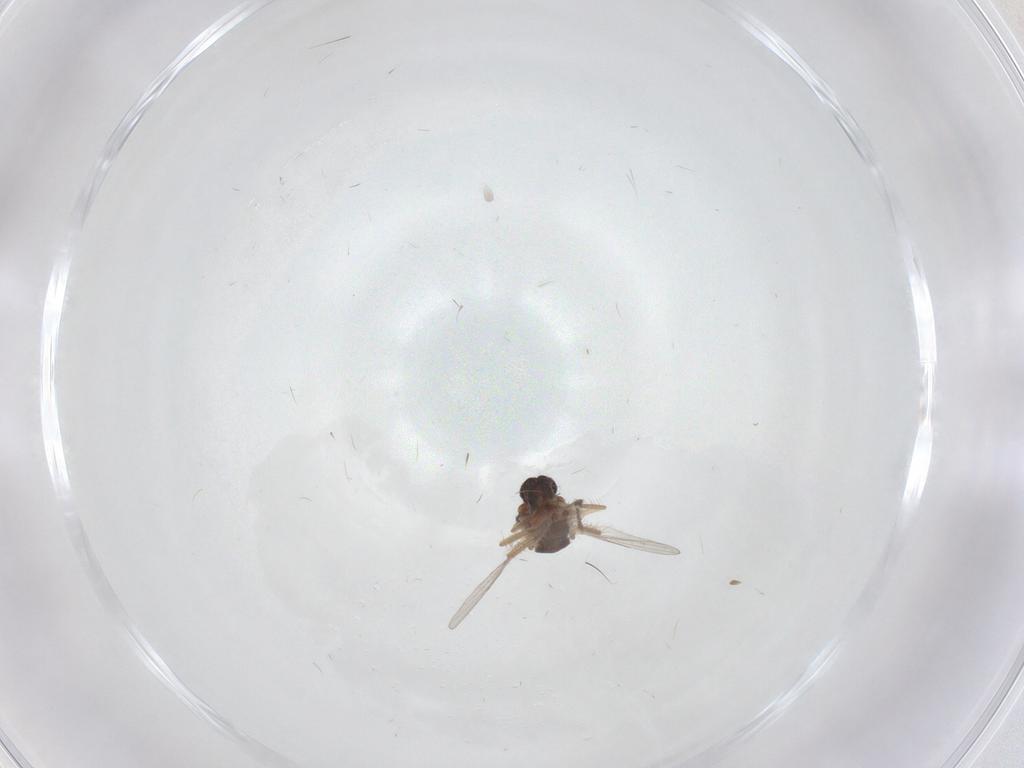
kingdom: Animalia
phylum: Arthropoda
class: Insecta
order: Diptera
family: Ceratopogonidae
